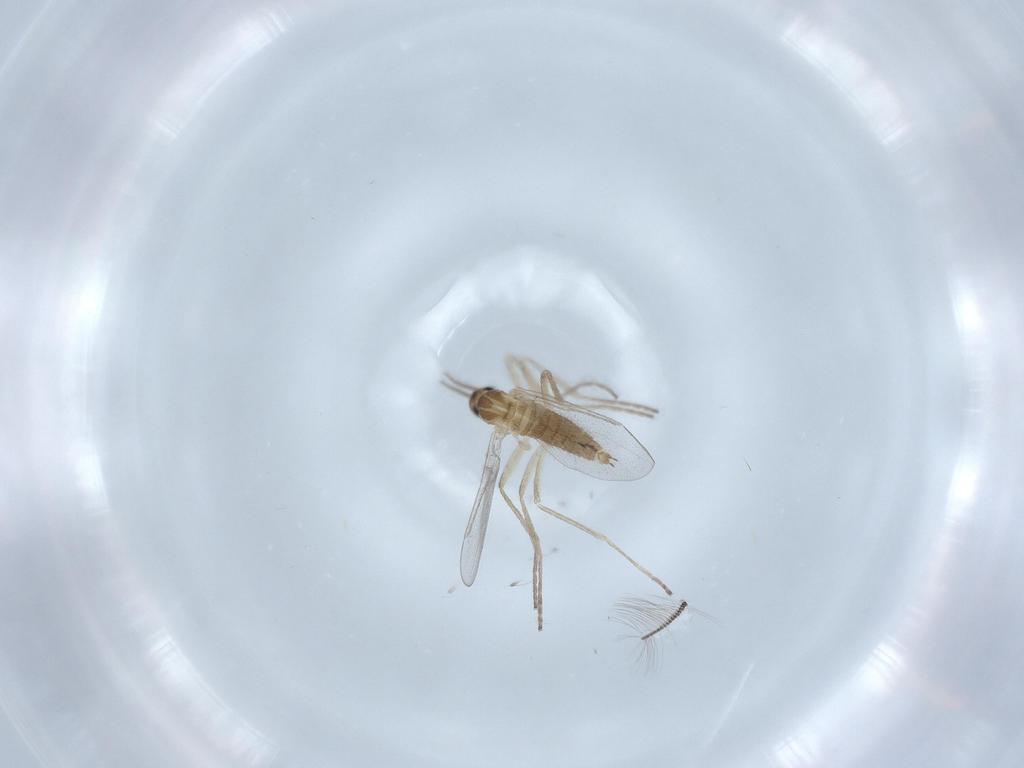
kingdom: Animalia
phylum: Arthropoda
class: Insecta
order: Diptera
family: Cecidomyiidae
